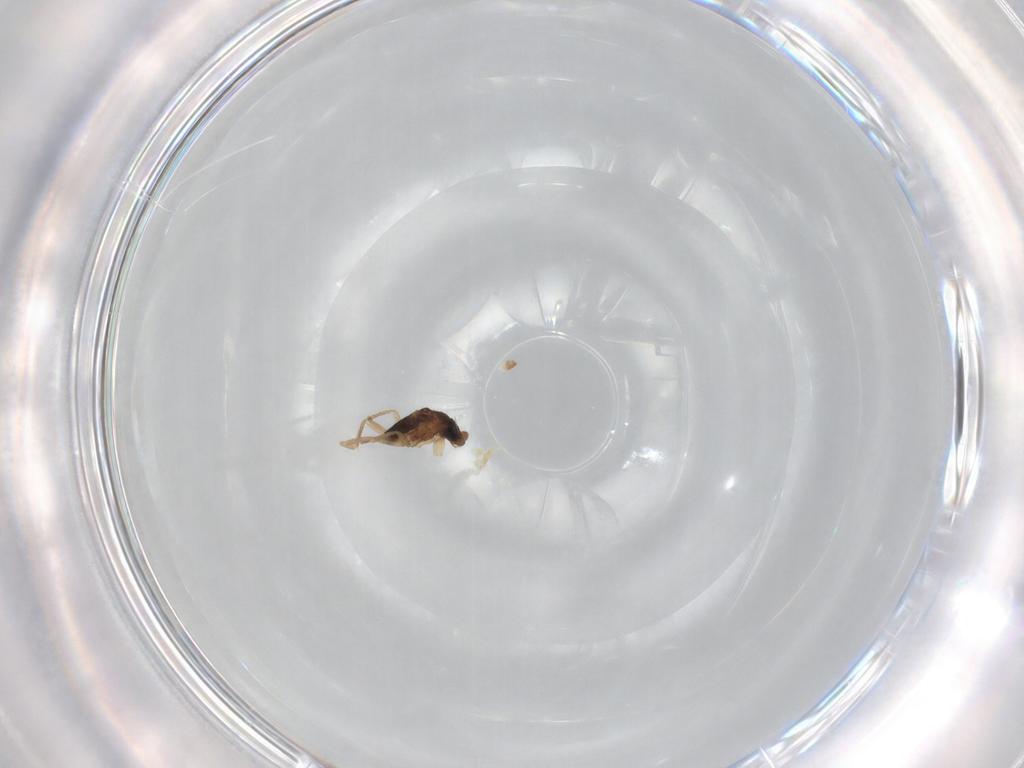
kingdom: Animalia
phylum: Arthropoda
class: Insecta
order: Diptera
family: Phoridae
